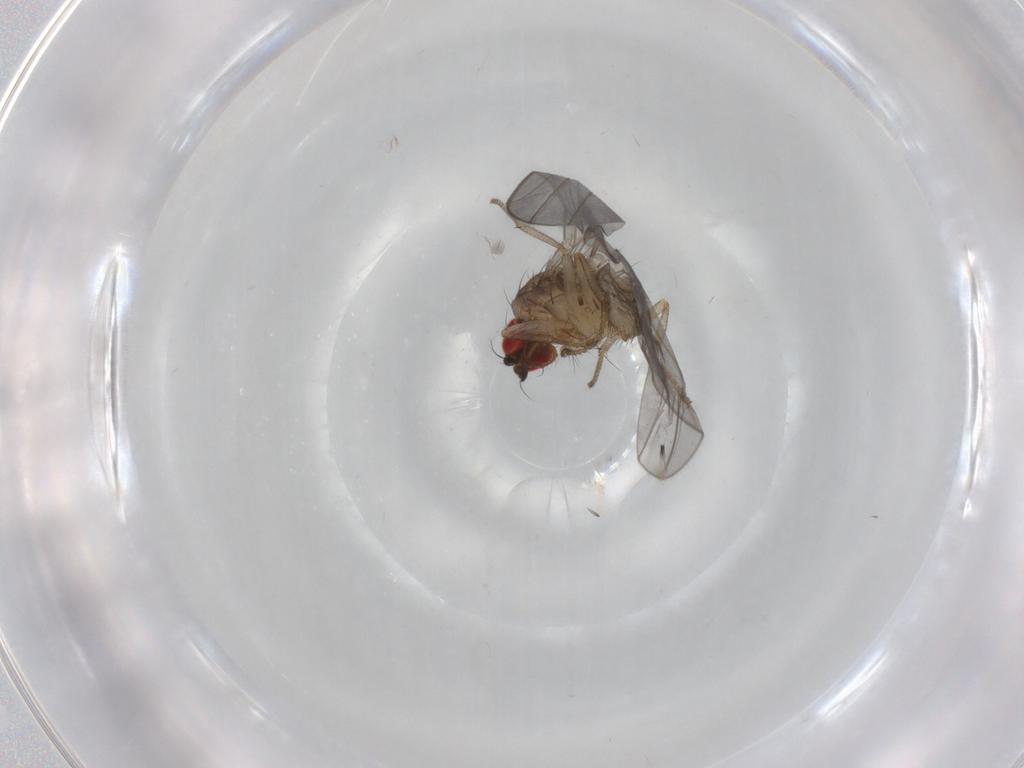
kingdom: Animalia
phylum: Arthropoda
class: Insecta
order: Diptera
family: Drosophilidae
